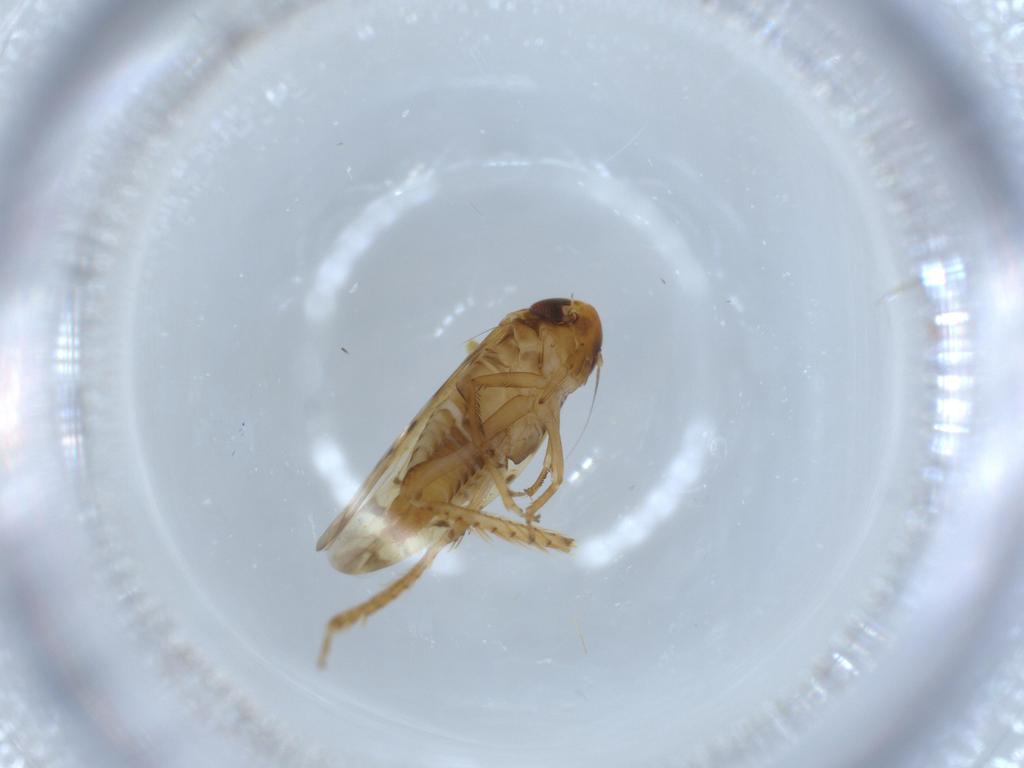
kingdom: Animalia
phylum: Arthropoda
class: Insecta
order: Hemiptera
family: Cicadellidae
